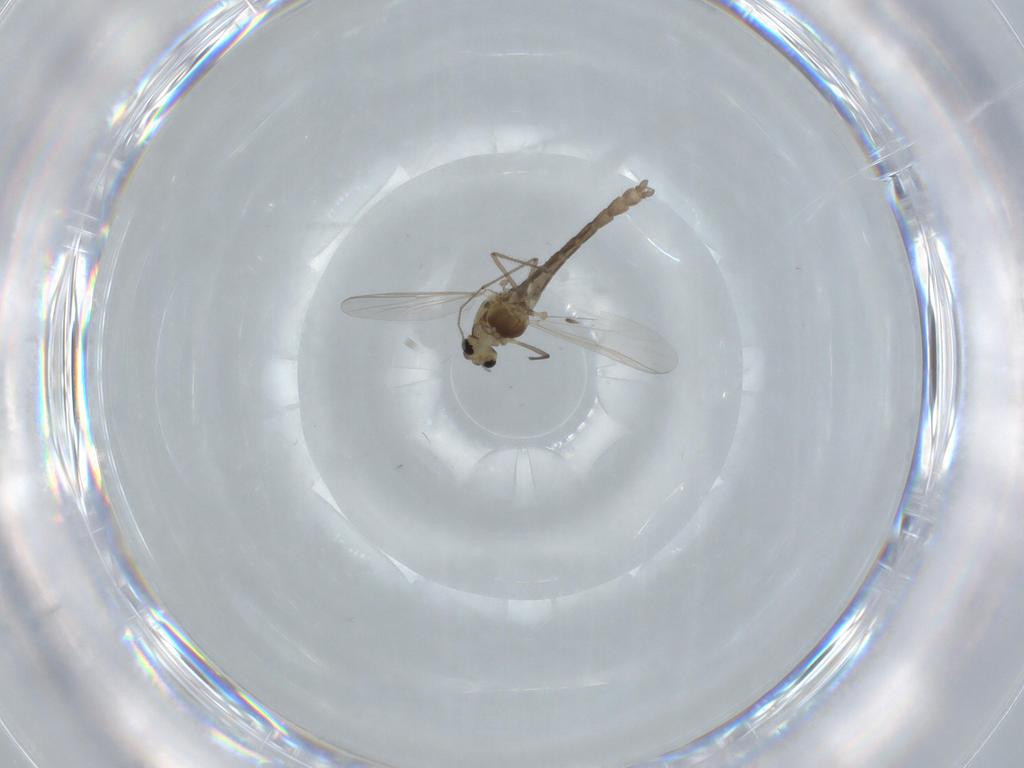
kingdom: Animalia
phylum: Arthropoda
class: Insecta
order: Diptera
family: Chironomidae
